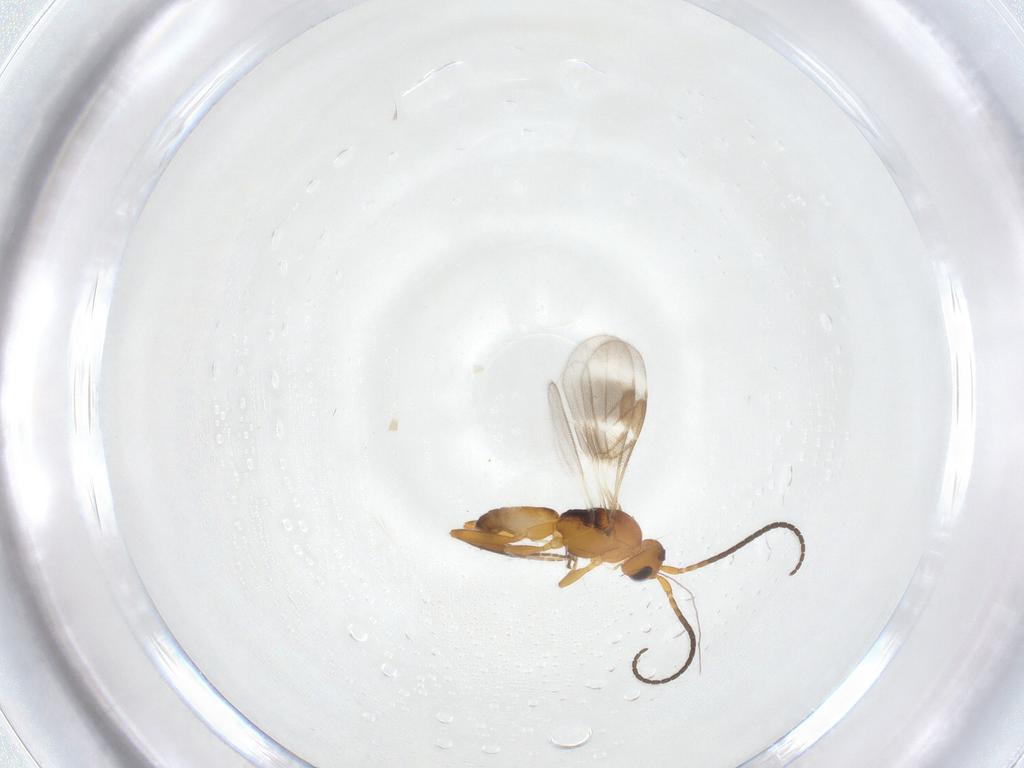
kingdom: Animalia
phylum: Arthropoda
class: Insecta
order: Hymenoptera
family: Braconidae
